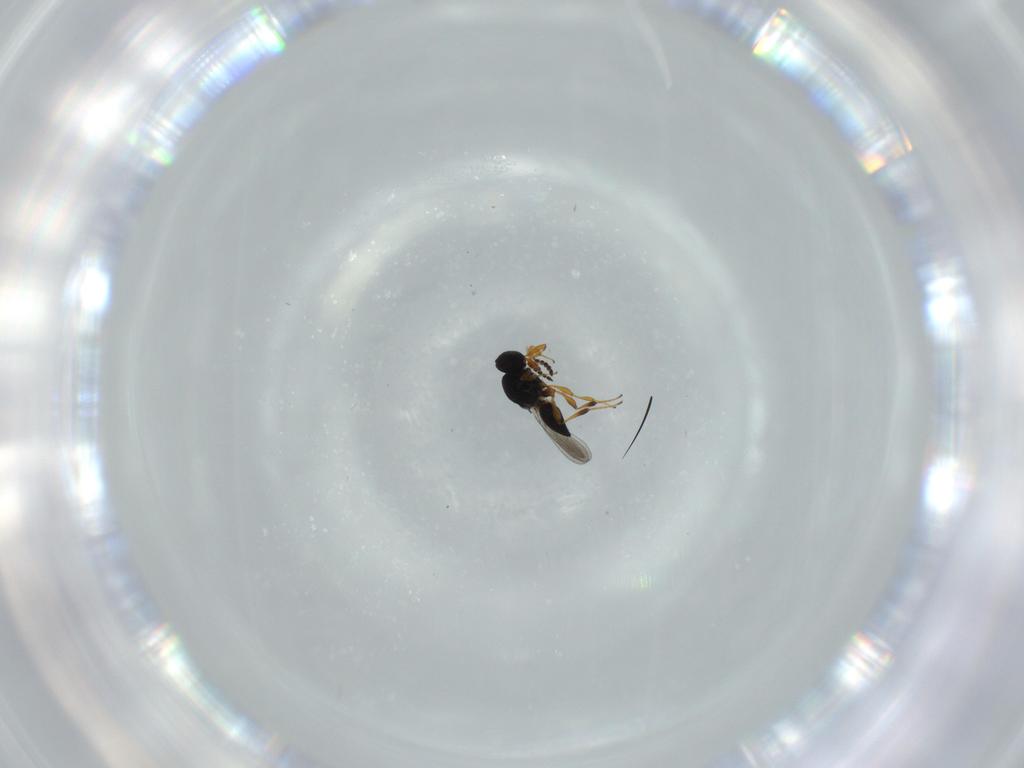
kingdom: Animalia
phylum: Arthropoda
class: Insecta
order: Hymenoptera
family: Platygastridae
